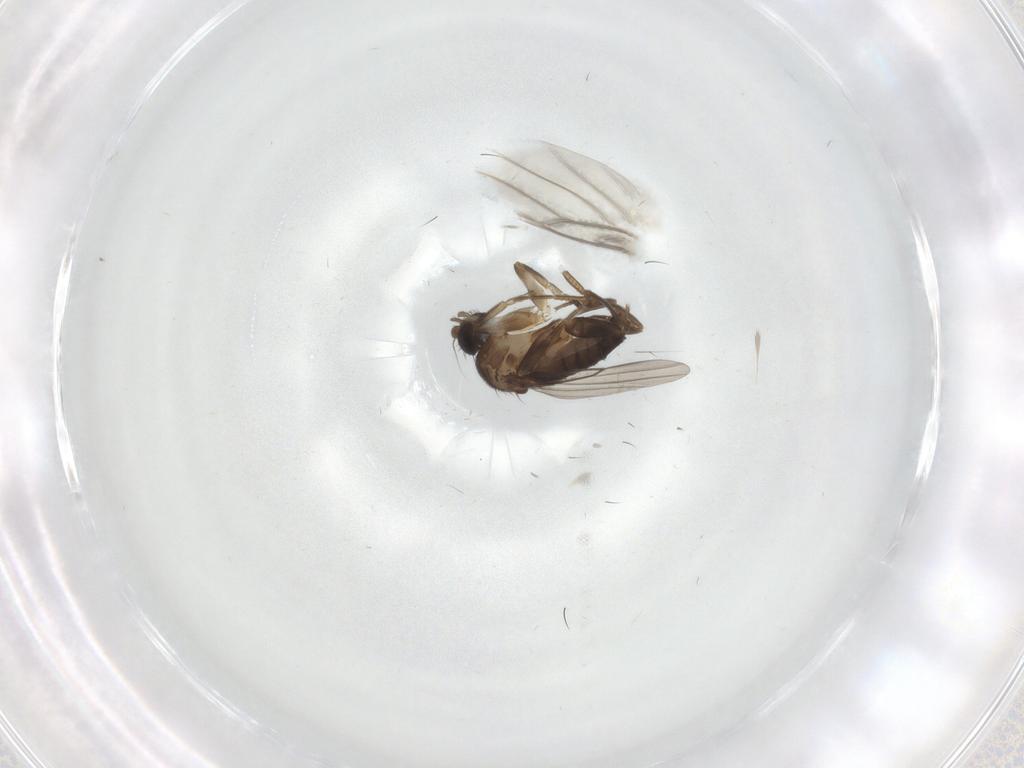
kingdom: Animalia
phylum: Arthropoda
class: Insecta
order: Diptera
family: Phoridae
